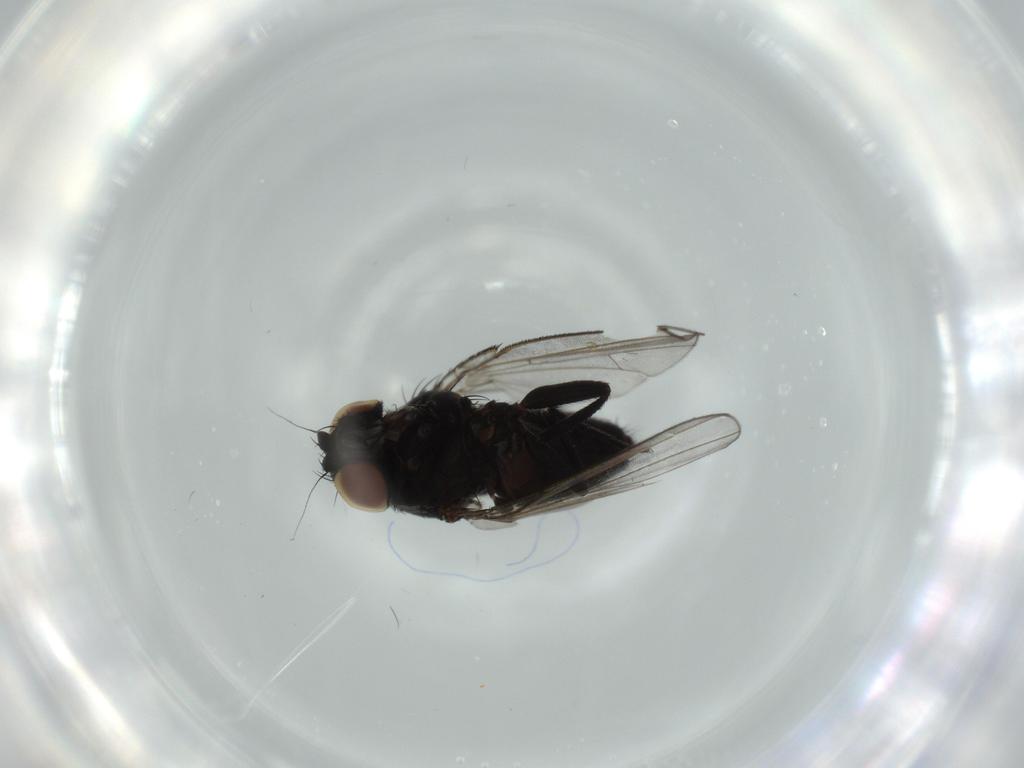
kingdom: Animalia
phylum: Arthropoda
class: Insecta
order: Diptera
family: Milichiidae
